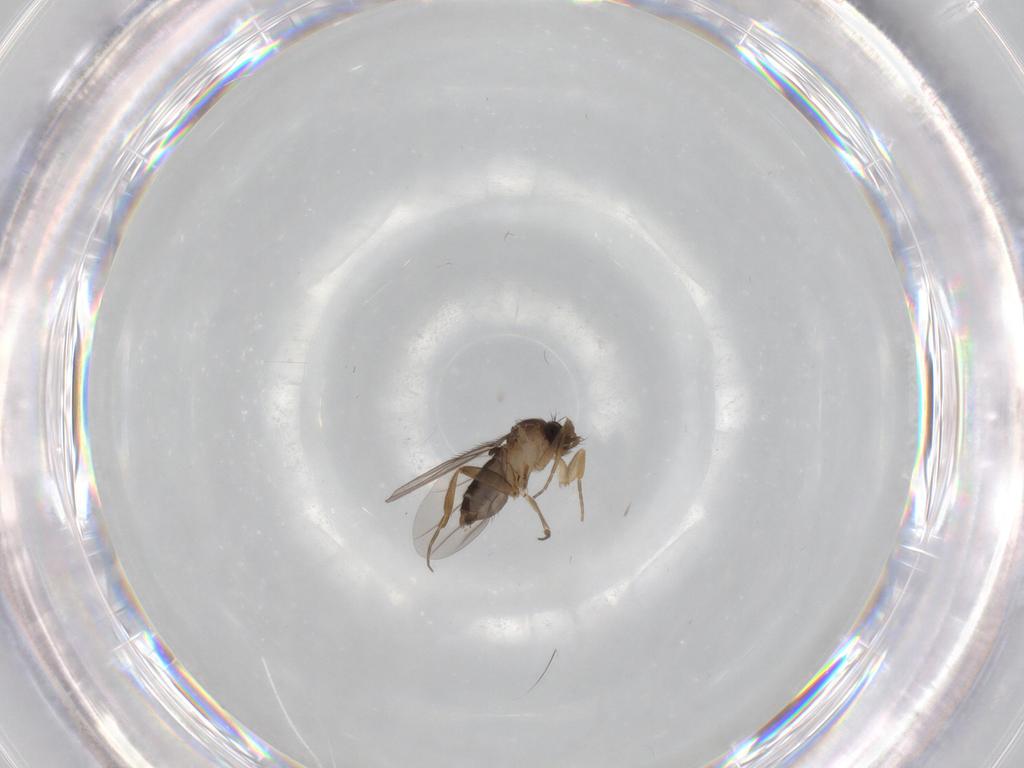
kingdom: Animalia
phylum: Arthropoda
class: Insecta
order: Diptera
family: Phoridae
